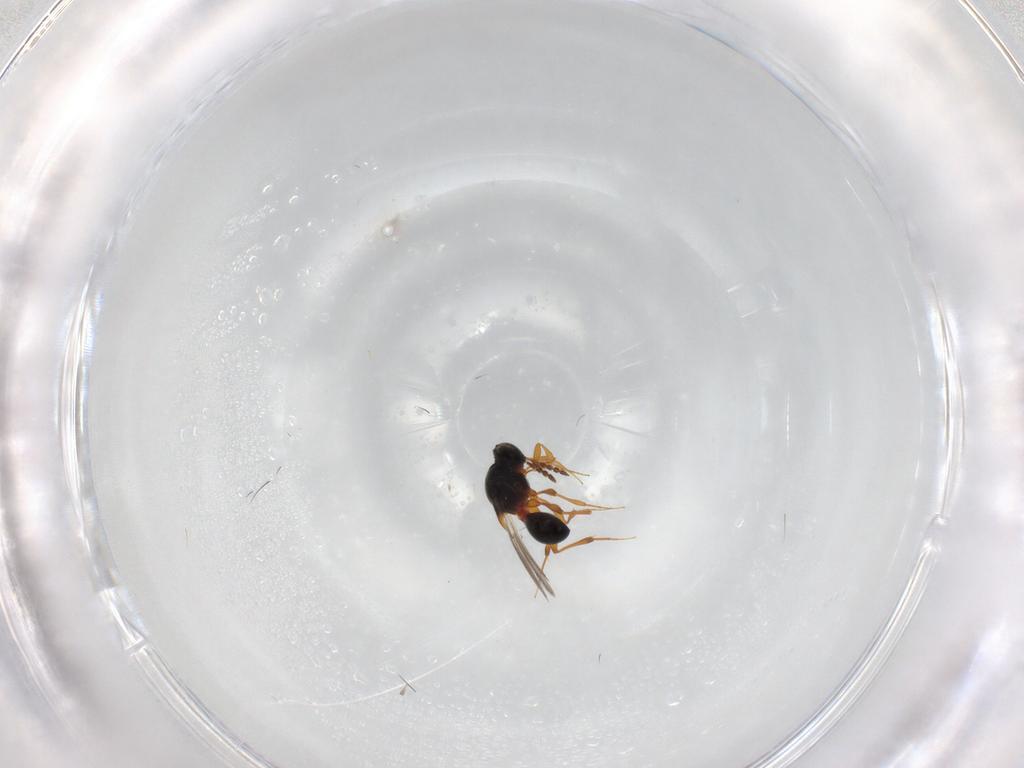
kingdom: Animalia
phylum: Arthropoda
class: Insecta
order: Hymenoptera
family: Platygastridae
